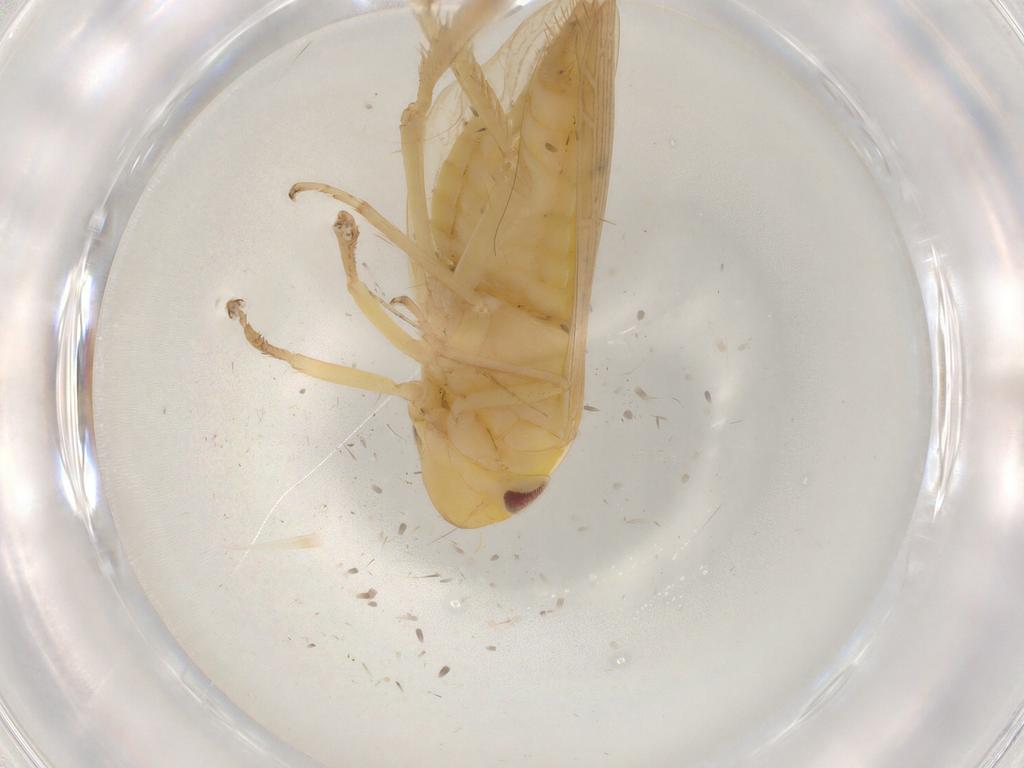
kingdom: Animalia
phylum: Arthropoda
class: Insecta
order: Hemiptera
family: Cicadellidae
